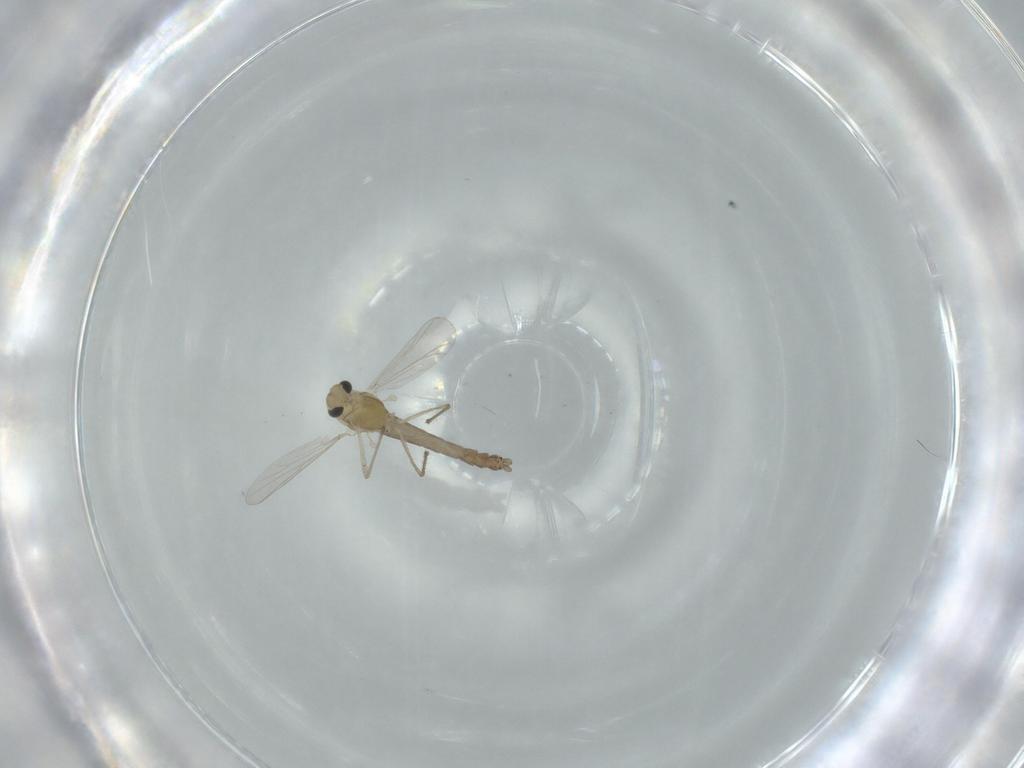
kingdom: Animalia
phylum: Arthropoda
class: Insecta
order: Diptera
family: Chironomidae
